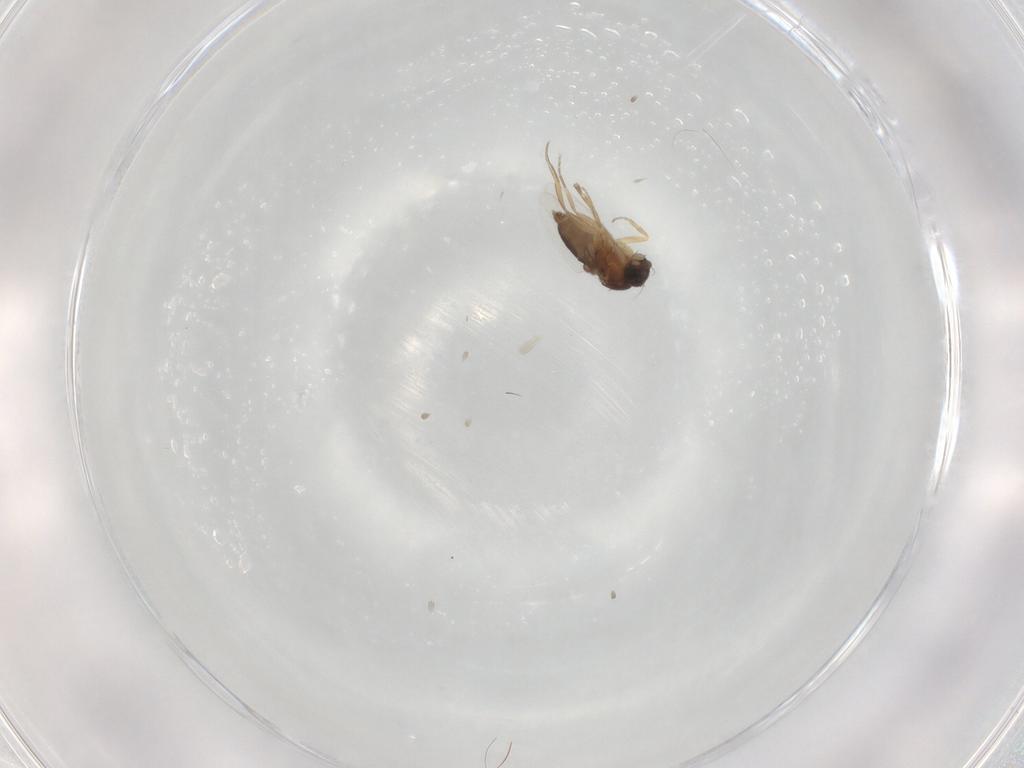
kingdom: Animalia
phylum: Arthropoda
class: Insecta
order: Diptera
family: Phoridae
